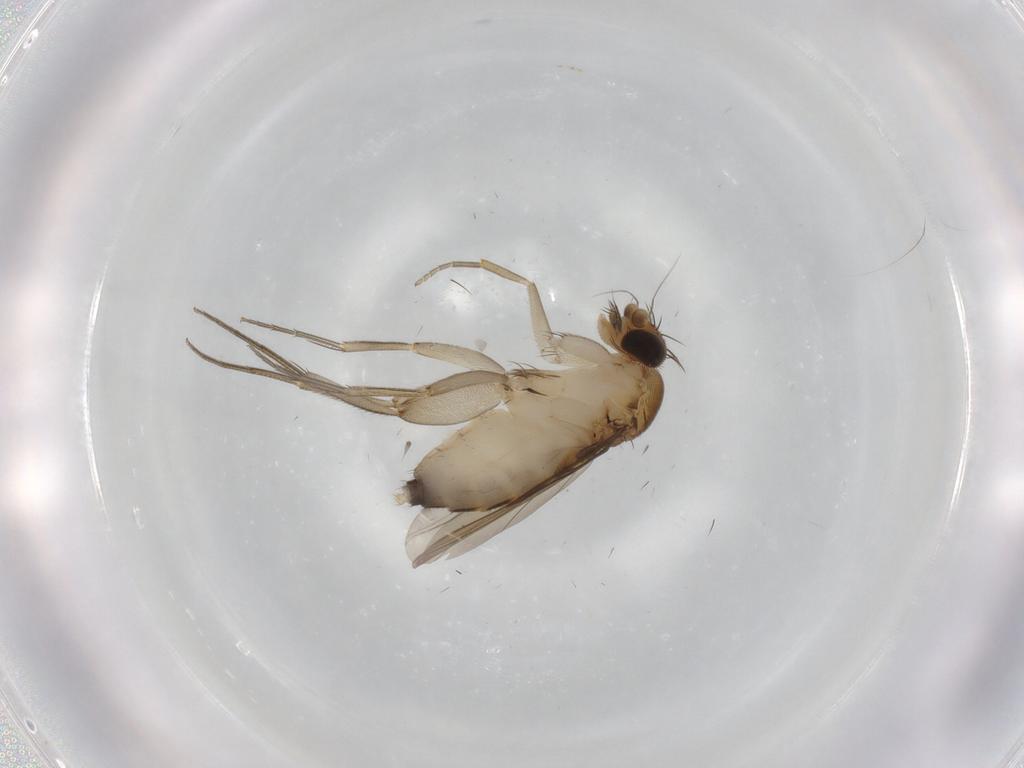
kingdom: Animalia
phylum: Arthropoda
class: Insecta
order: Diptera
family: Phoridae
